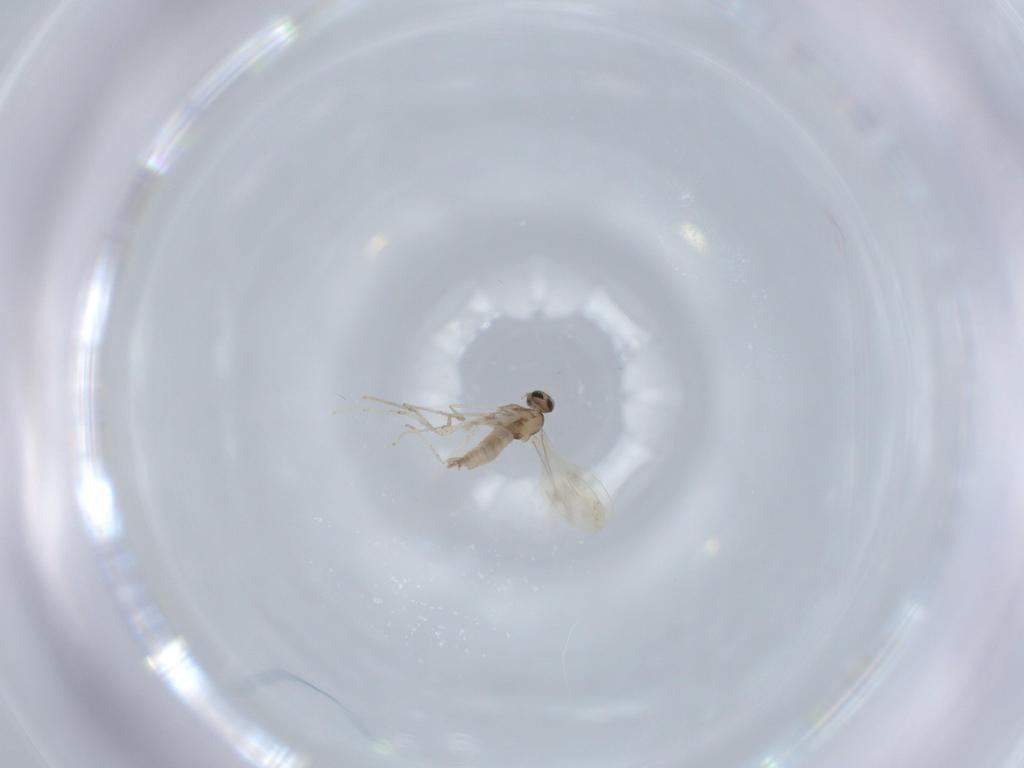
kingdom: Animalia
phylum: Arthropoda
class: Insecta
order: Diptera
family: Cecidomyiidae
